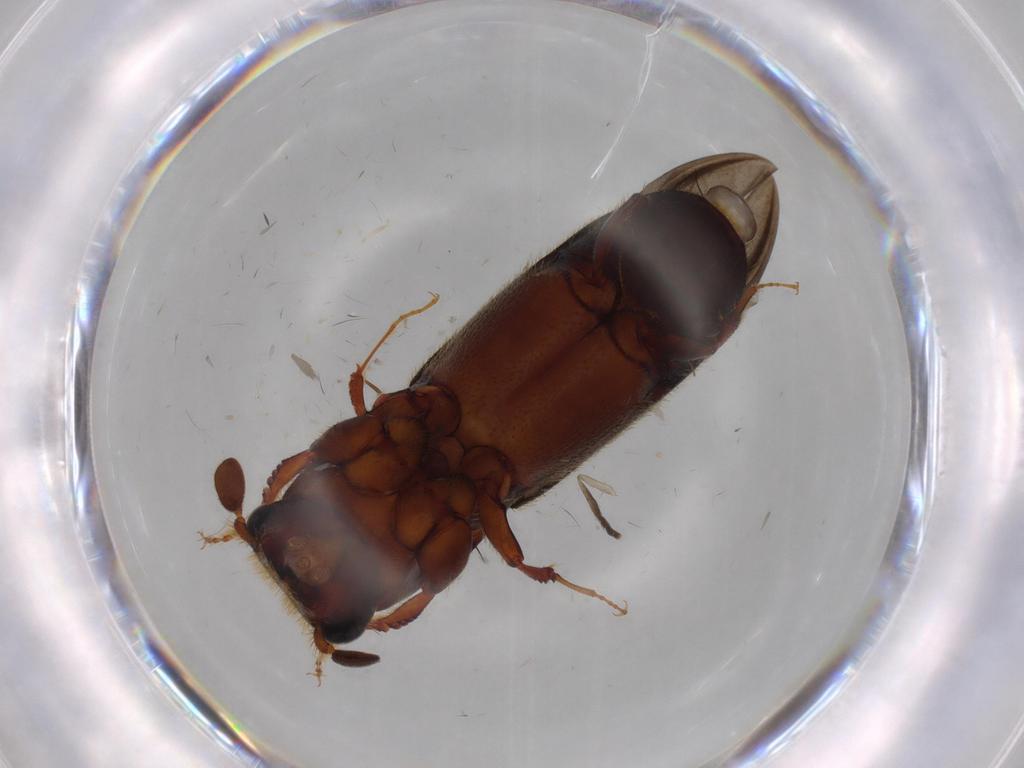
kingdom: Animalia
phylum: Arthropoda
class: Insecta
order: Coleoptera
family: Curculionidae
